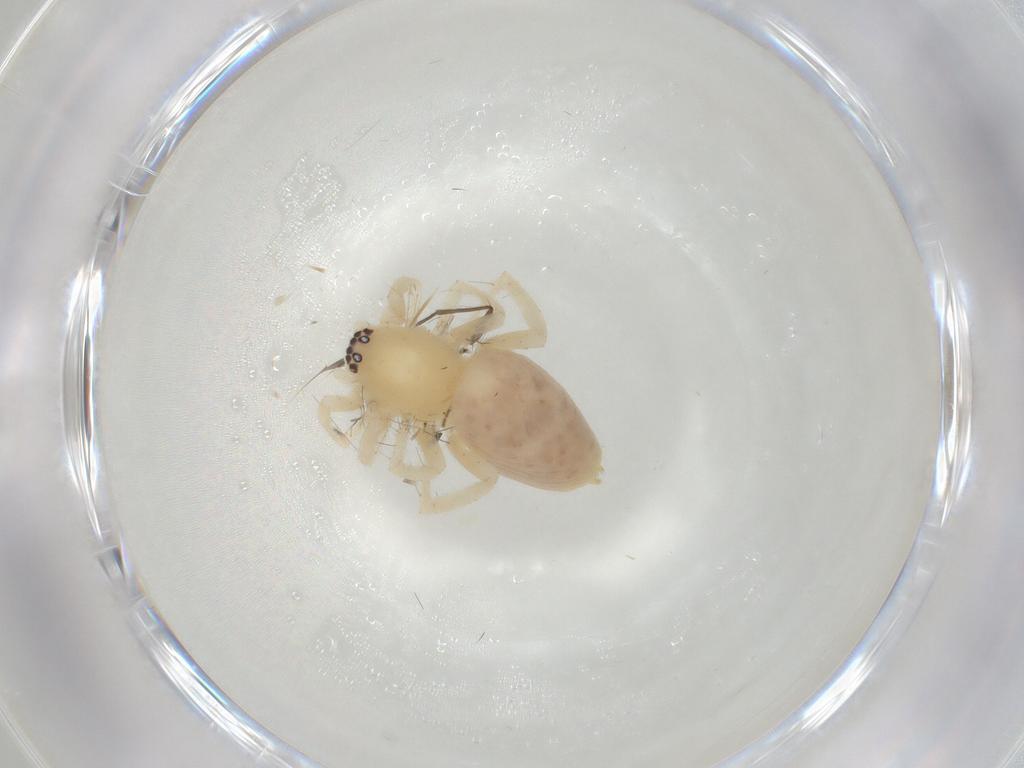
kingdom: Animalia
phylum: Arthropoda
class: Arachnida
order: Araneae
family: Clubionidae
